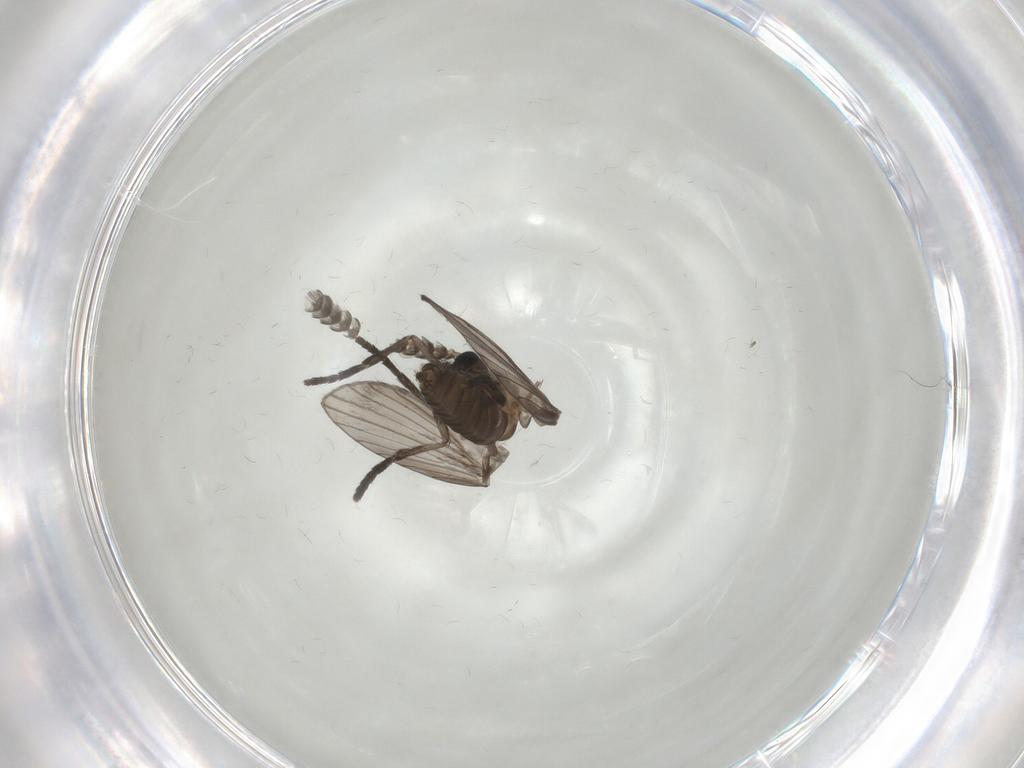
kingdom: Animalia
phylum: Arthropoda
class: Insecta
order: Diptera
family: Psychodidae
